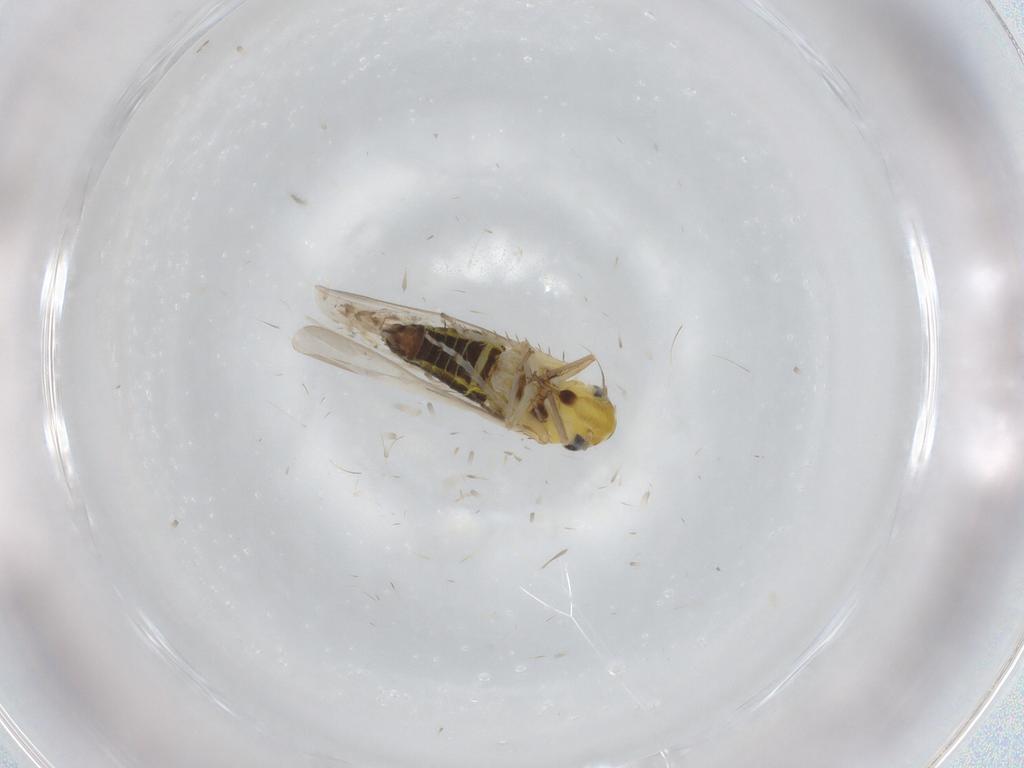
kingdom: Animalia
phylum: Arthropoda
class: Insecta
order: Hemiptera
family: Cicadellidae
